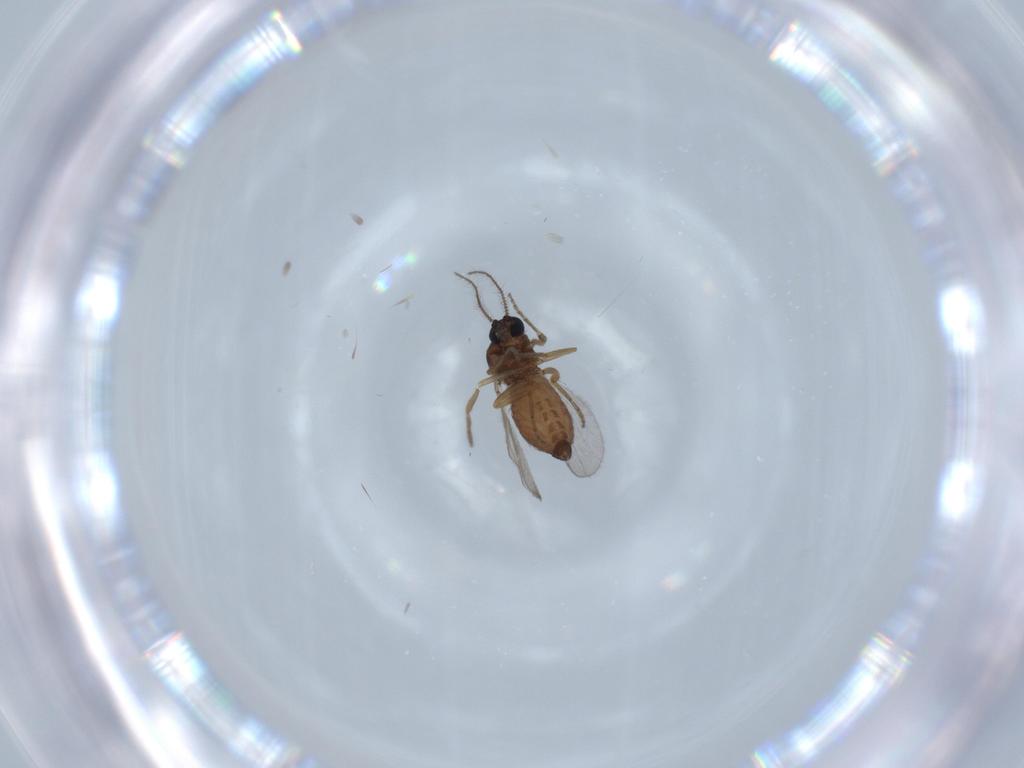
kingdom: Animalia
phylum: Arthropoda
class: Insecta
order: Diptera
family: Ceratopogonidae
